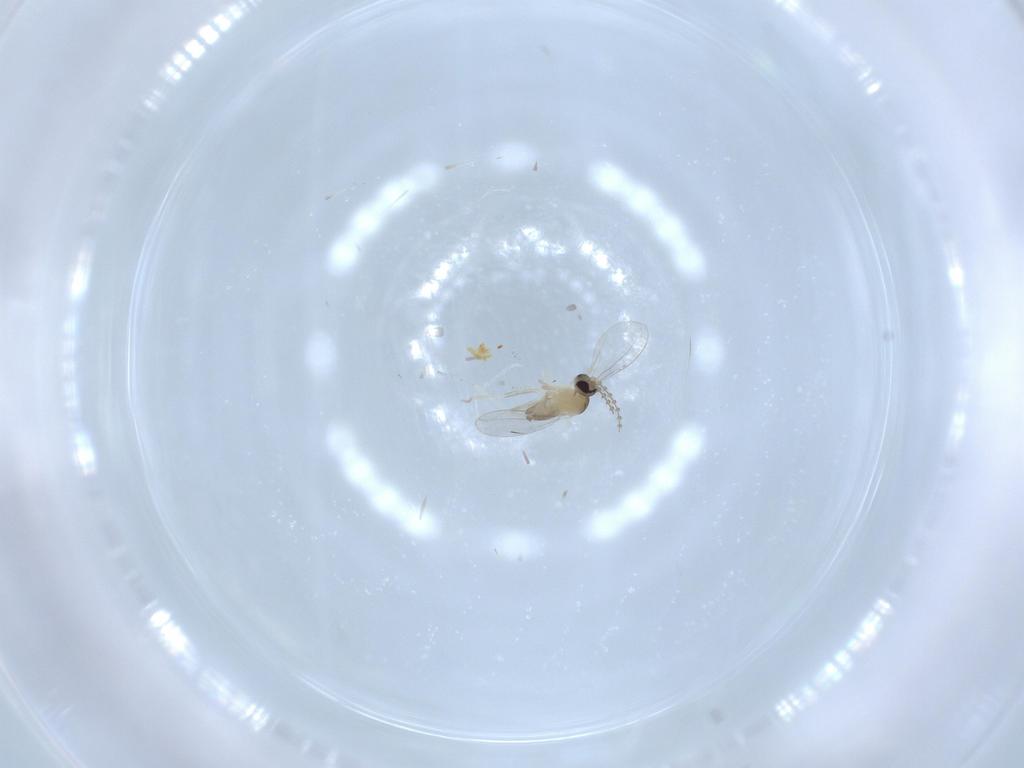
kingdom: Animalia
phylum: Arthropoda
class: Insecta
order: Diptera
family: Cecidomyiidae
